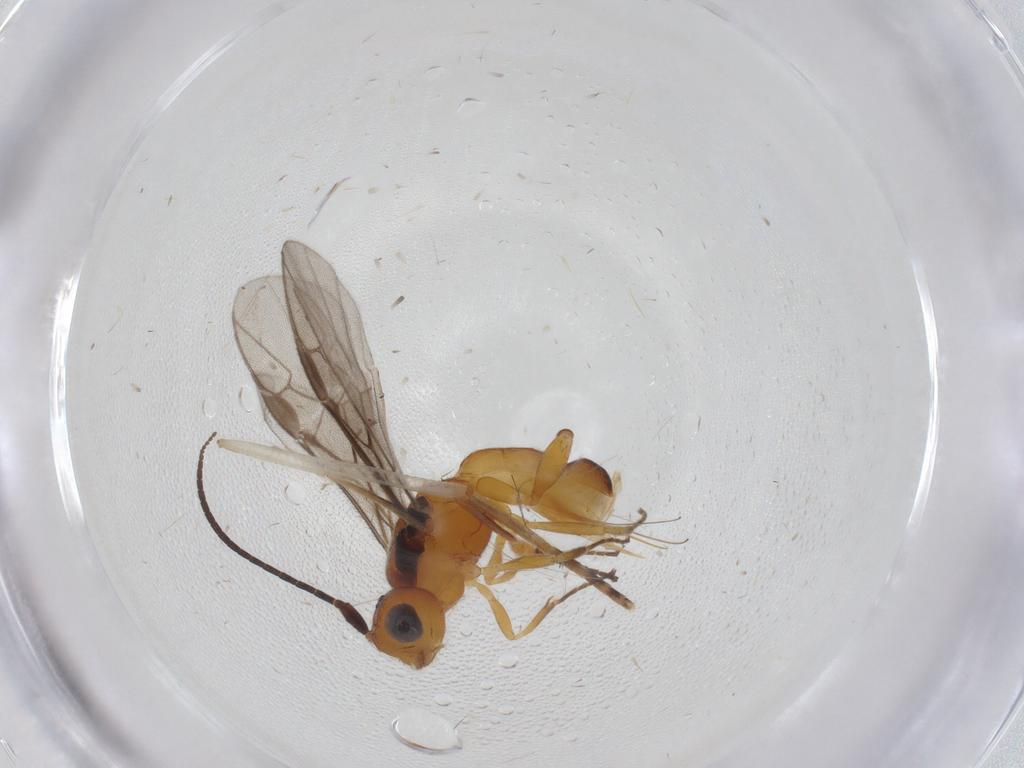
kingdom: Animalia
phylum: Arthropoda
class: Insecta
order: Hymenoptera
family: Braconidae
